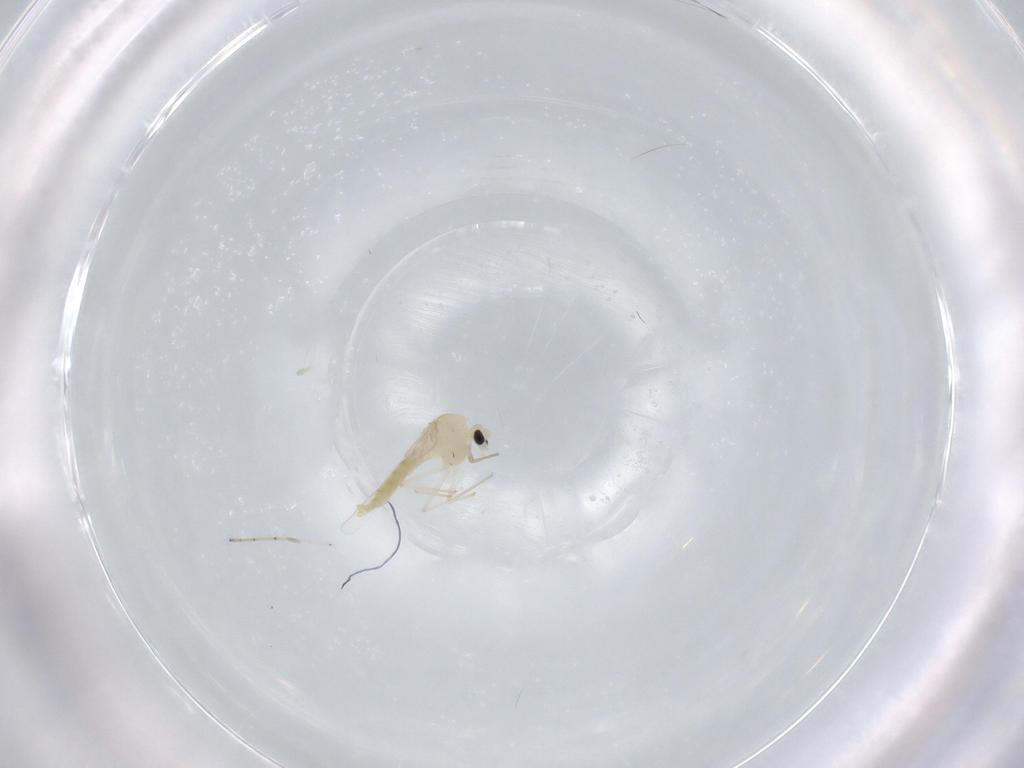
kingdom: Animalia
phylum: Arthropoda
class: Insecta
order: Diptera
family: Chironomidae
